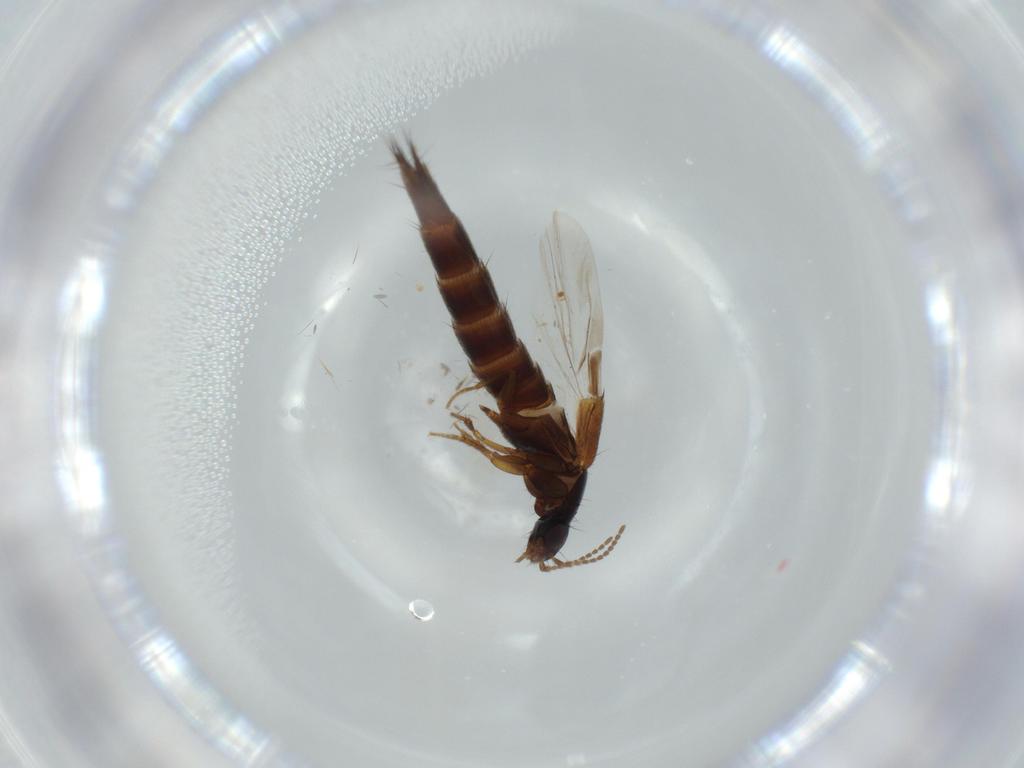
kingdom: Animalia
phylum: Arthropoda
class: Insecta
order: Coleoptera
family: Staphylinidae
